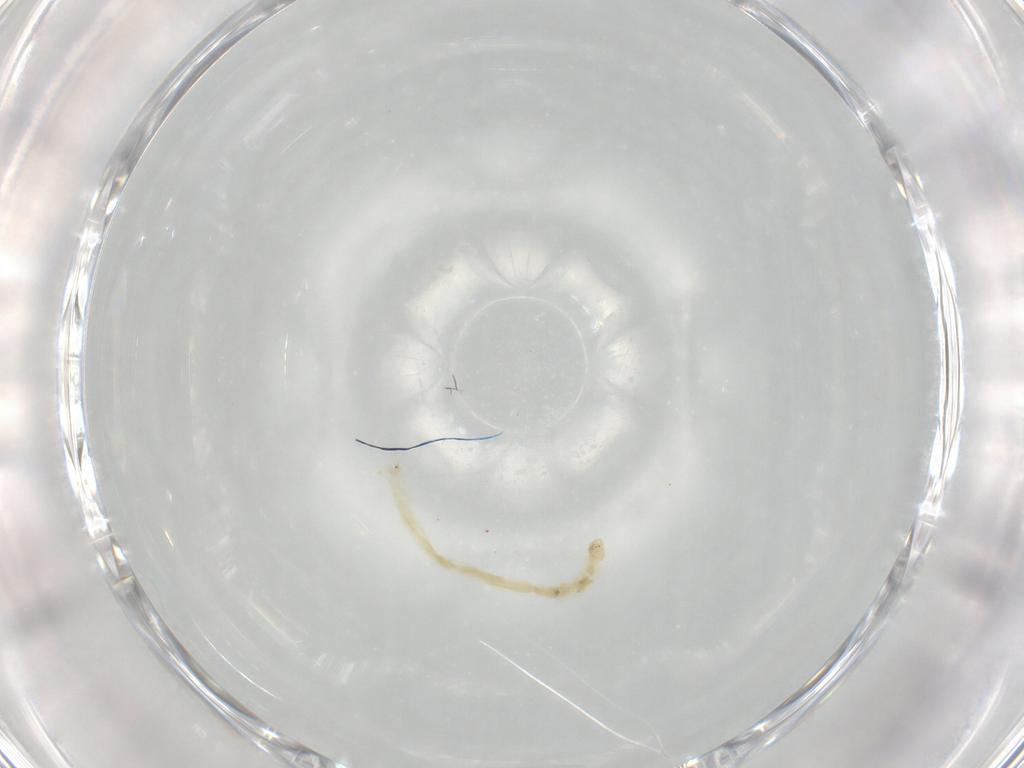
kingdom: Animalia
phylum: Arthropoda
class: Insecta
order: Diptera
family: Chironomidae
